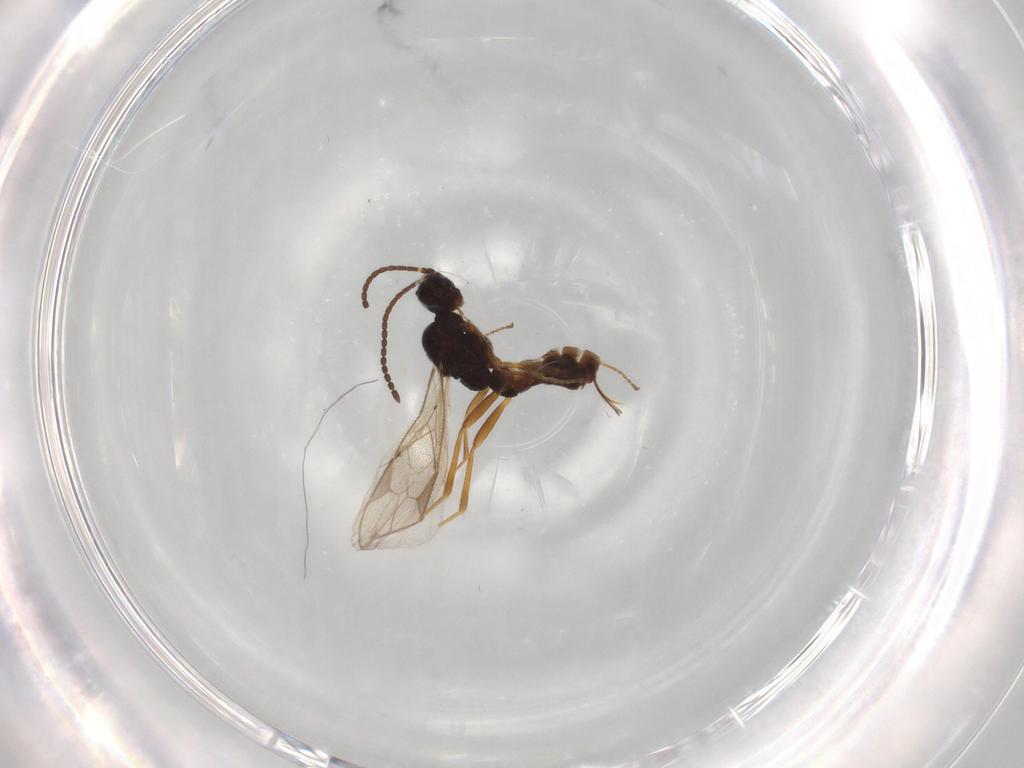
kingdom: Animalia
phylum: Arthropoda
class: Insecta
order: Hymenoptera
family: Braconidae
